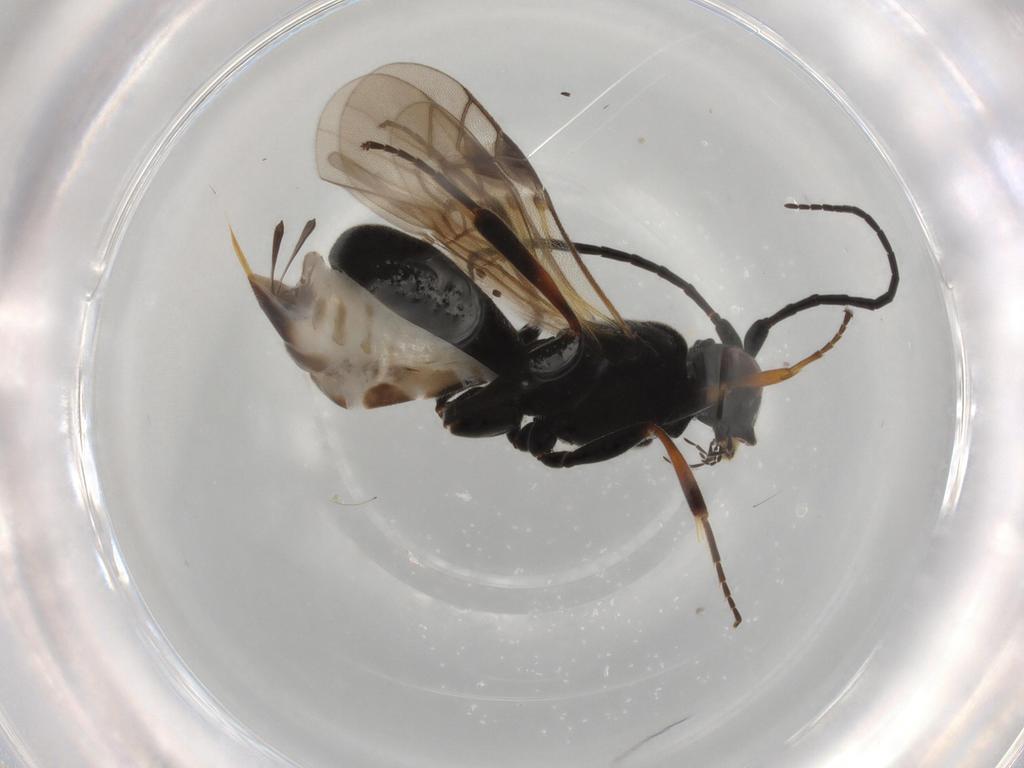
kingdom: Animalia
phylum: Arthropoda
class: Insecta
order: Hymenoptera
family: Braconidae
